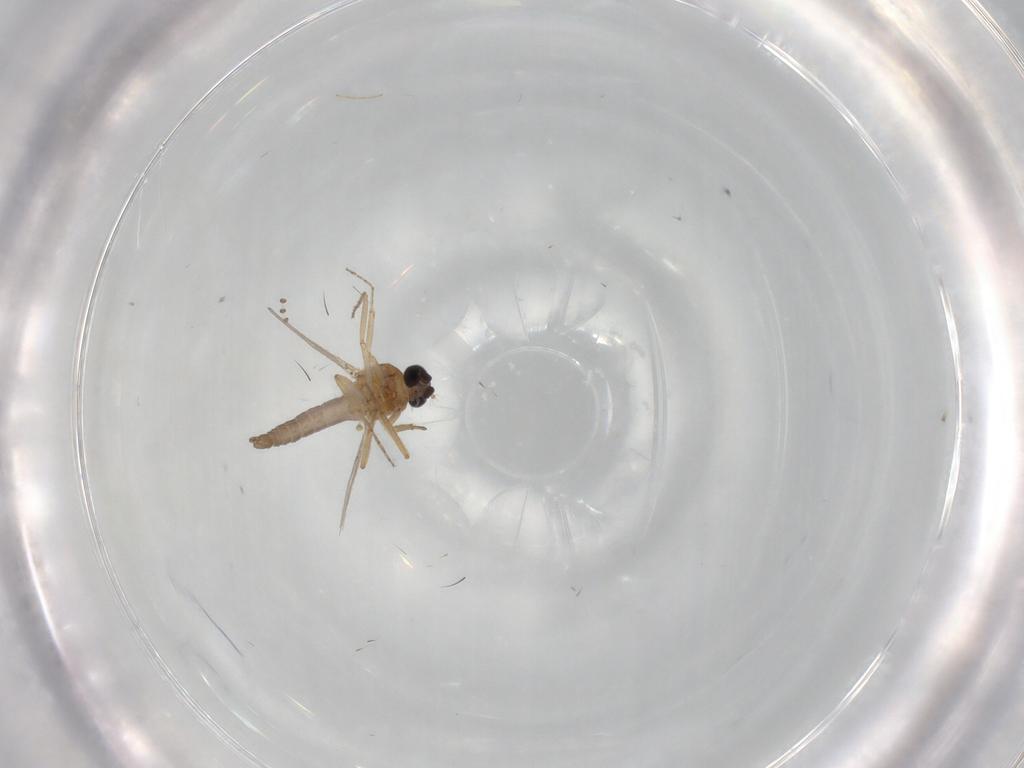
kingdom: Animalia
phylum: Arthropoda
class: Insecta
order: Diptera
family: Ceratopogonidae
